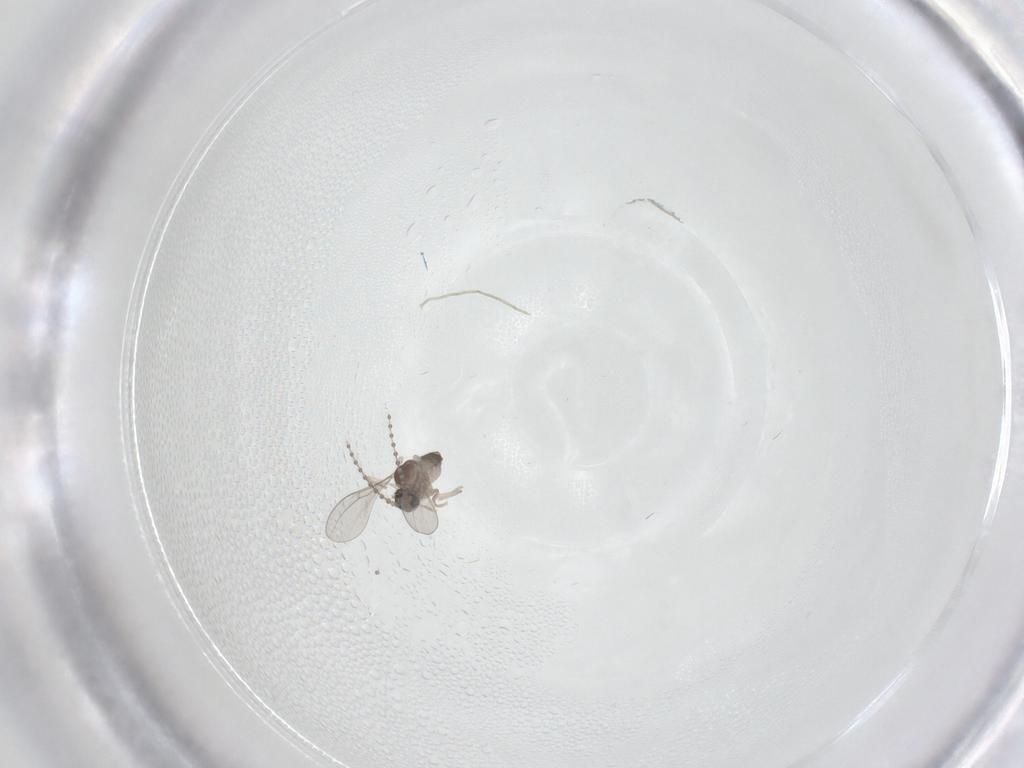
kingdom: Animalia
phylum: Arthropoda
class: Insecta
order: Diptera
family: Cecidomyiidae
